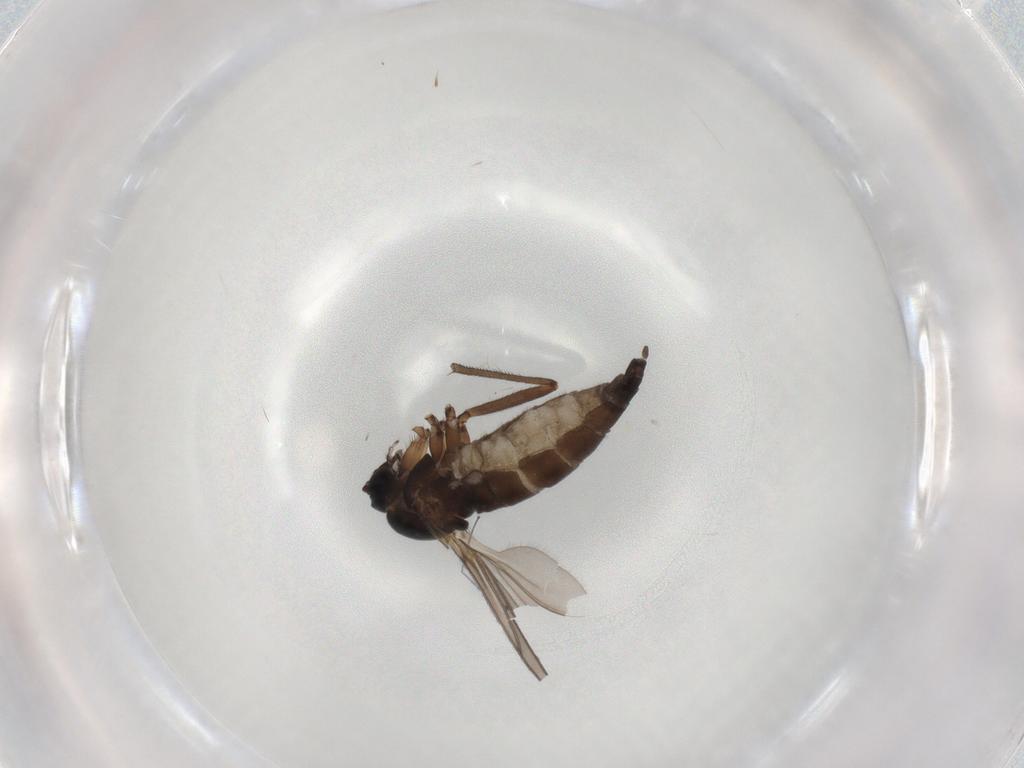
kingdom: Animalia
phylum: Arthropoda
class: Insecta
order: Diptera
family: Sciaridae
